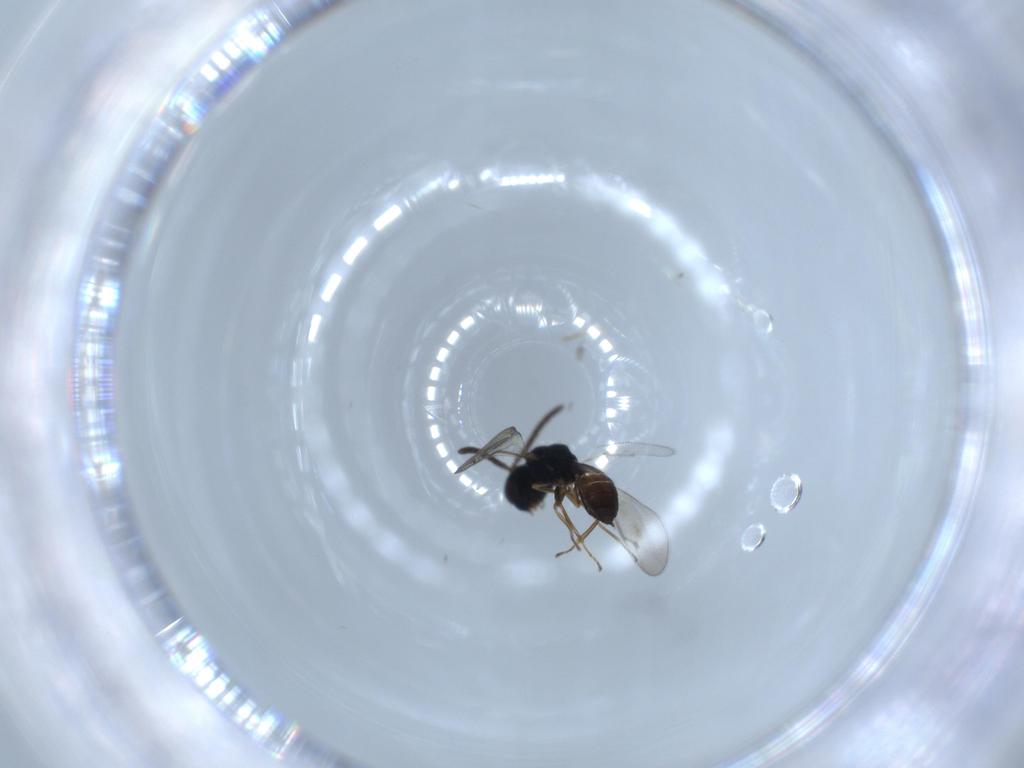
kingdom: Animalia
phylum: Arthropoda
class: Insecta
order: Hymenoptera
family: Pteromalidae
